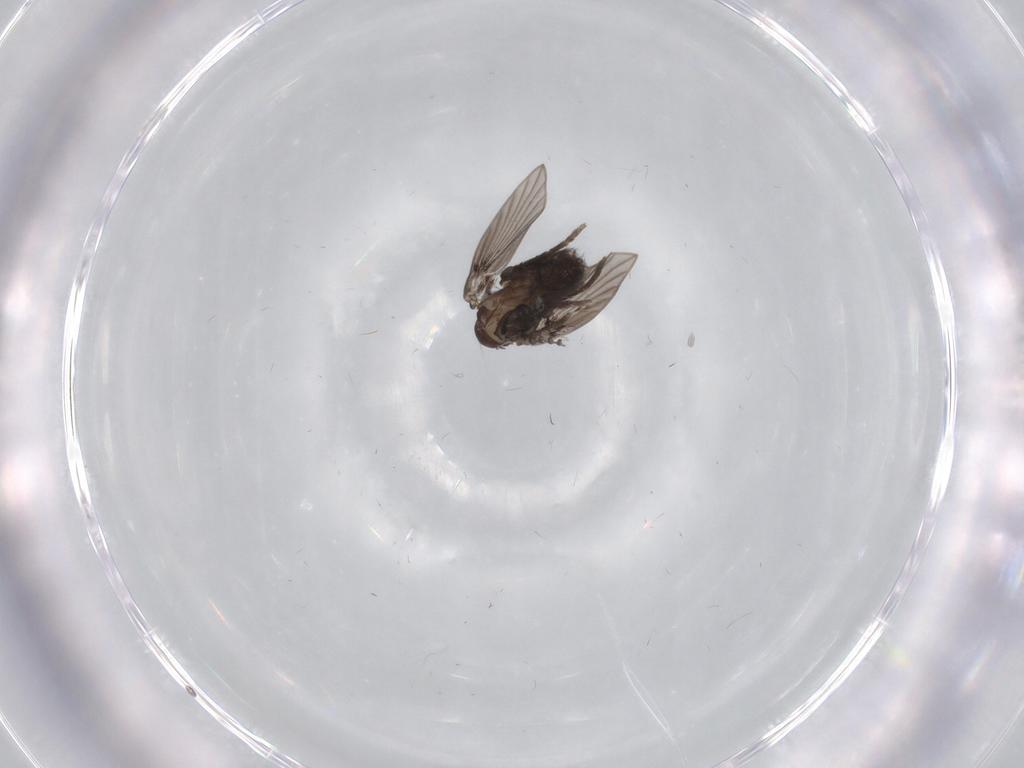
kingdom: Animalia
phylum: Arthropoda
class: Insecta
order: Diptera
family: Psychodidae
